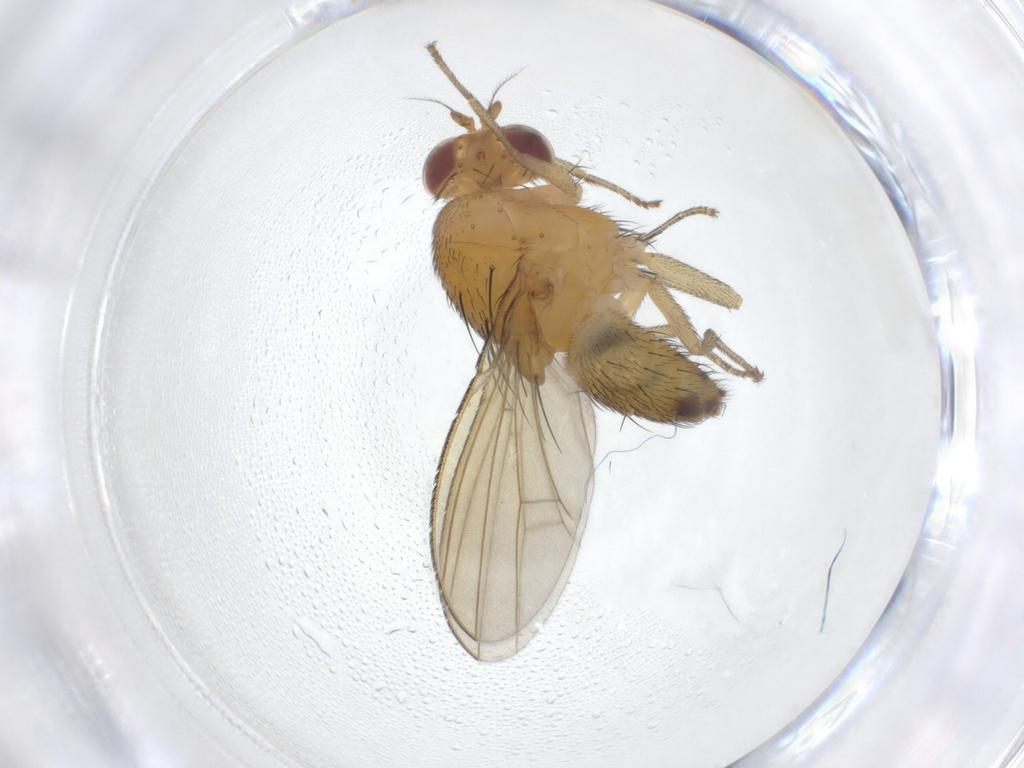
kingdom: Animalia
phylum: Arthropoda
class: Insecta
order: Diptera
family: Lauxaniidae
